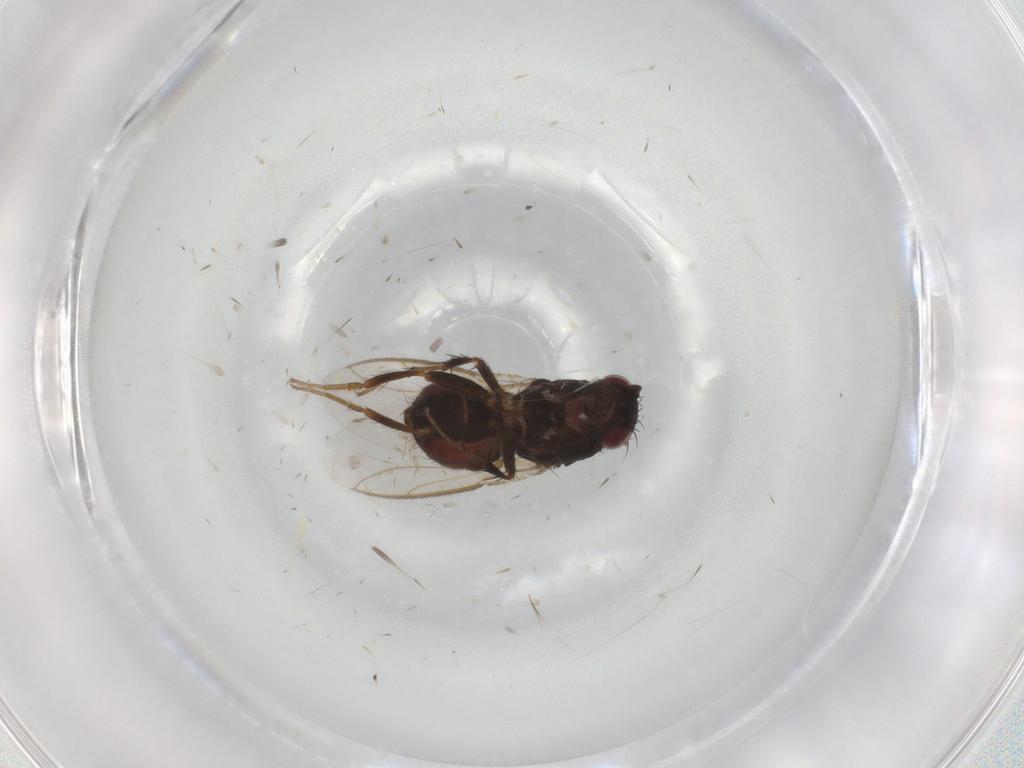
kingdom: Animalia
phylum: Arthropoda
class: Insecta
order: Diptera
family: Sphaeroceridae
